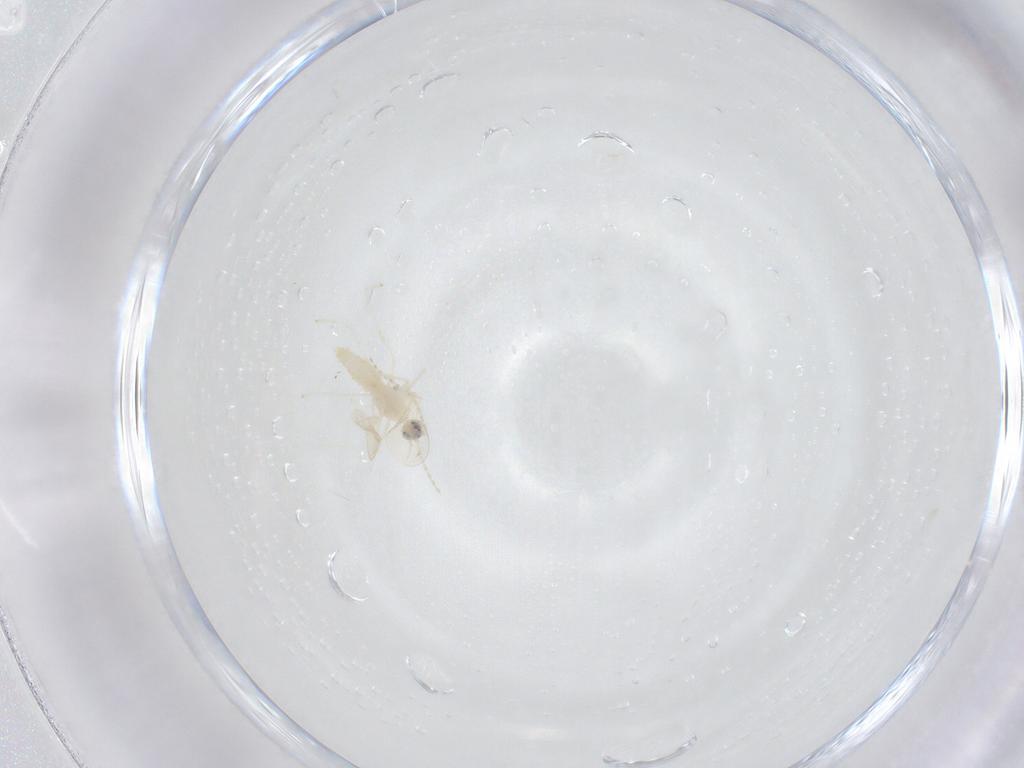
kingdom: Animalia
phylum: Arthropoda
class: Insecta
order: Diptera
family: Cecidomyiidae
